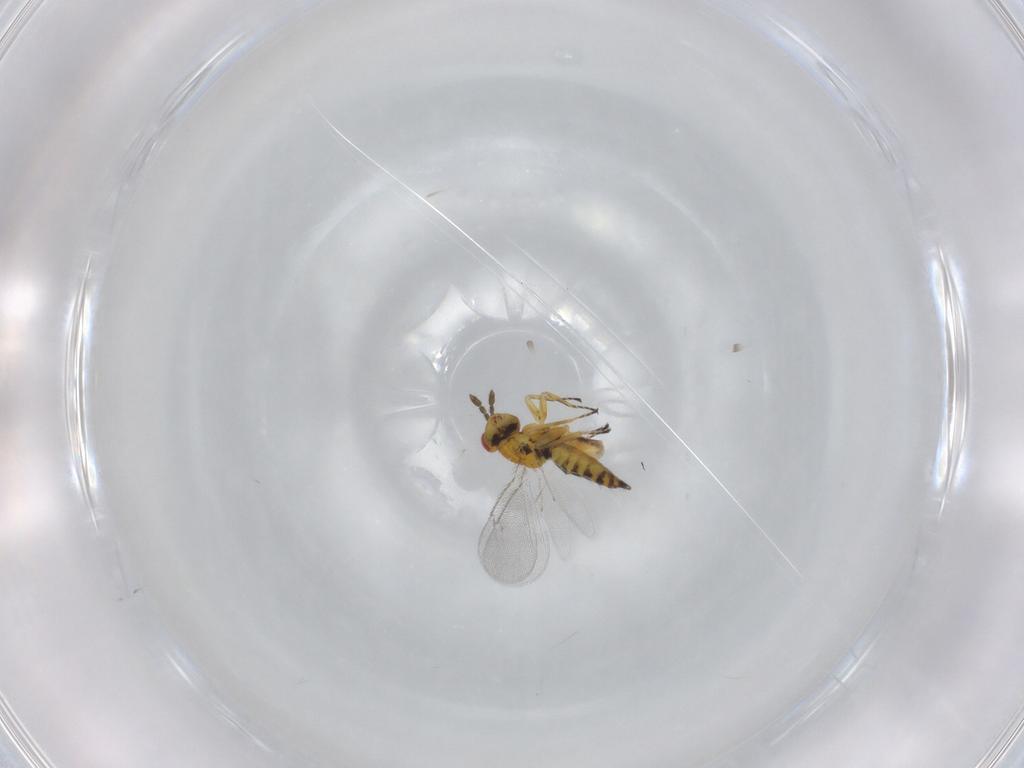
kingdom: Animalia
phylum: Arthropoda
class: Insecta
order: Hymenoptera
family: Eulophidae
